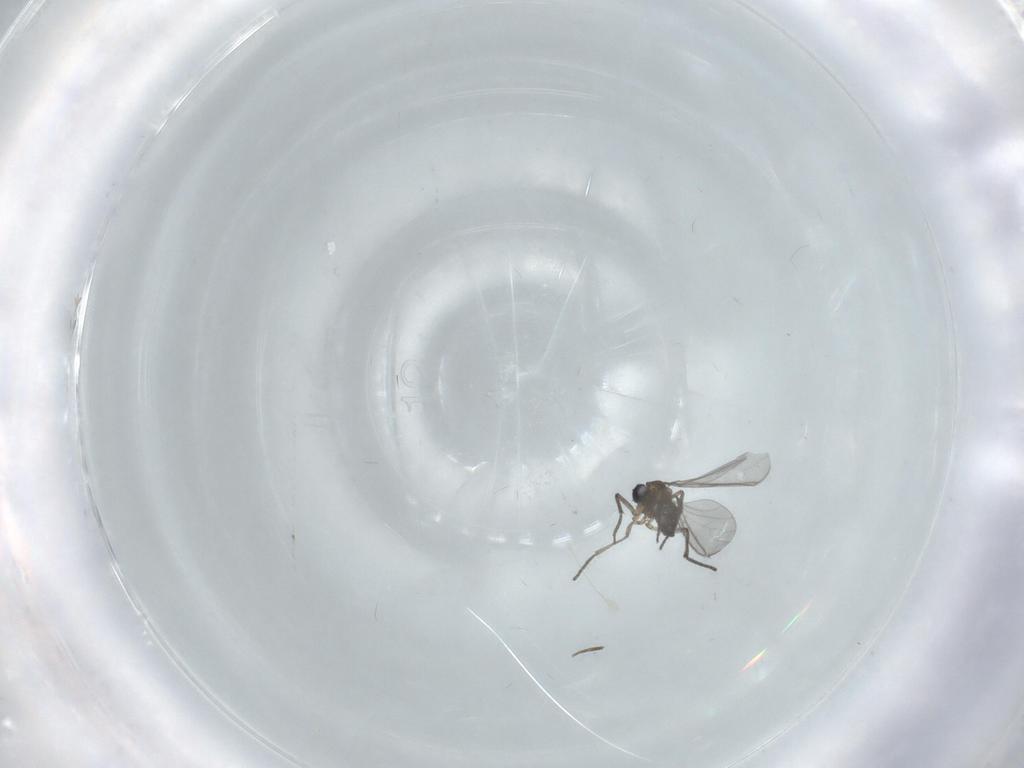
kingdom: Animalia
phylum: Arthropoda
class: Insecta
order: Diptera
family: Phoridae
